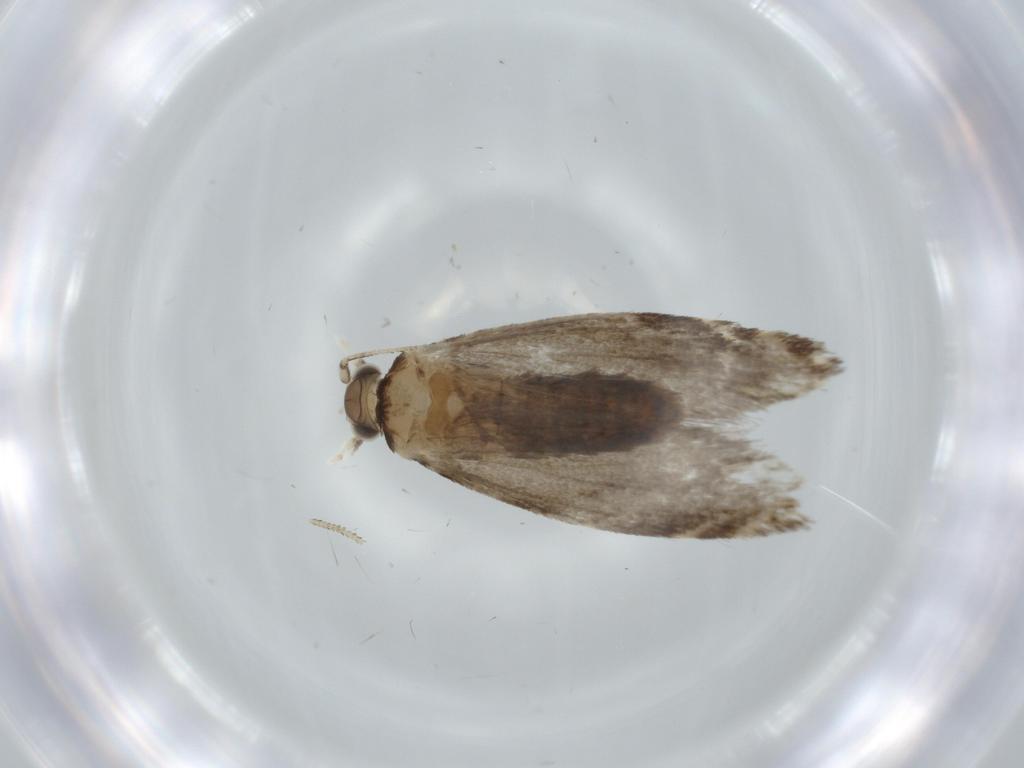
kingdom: Animalia
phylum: Arthropoda
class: Insecta
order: Lepidoptera
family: Tineidae
